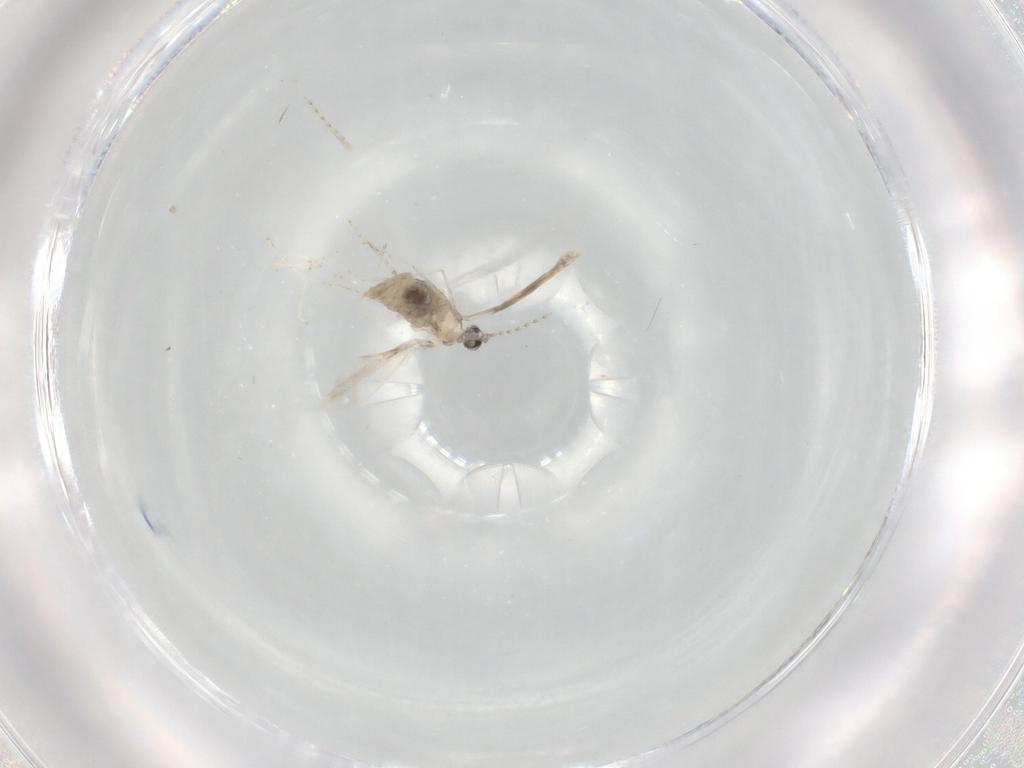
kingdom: Animalia
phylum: Arthropoda
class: Insecta
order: Diptera
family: Cecidomyiidae
